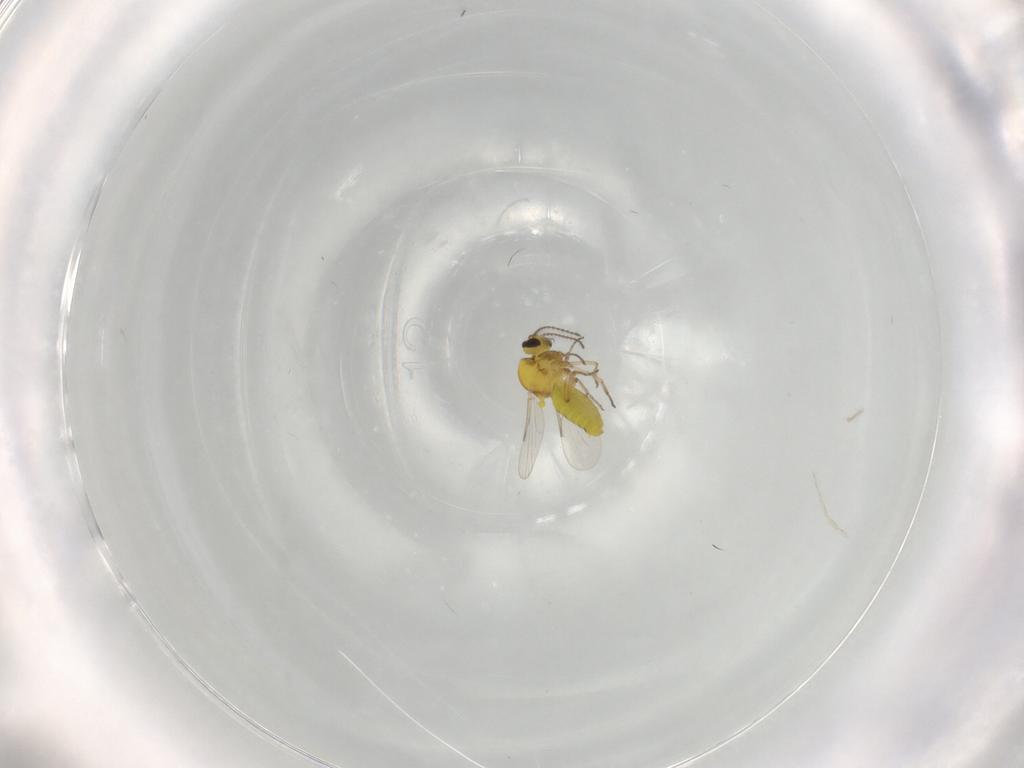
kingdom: Animalia
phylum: Arthropoda
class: Insecta
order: Diptera
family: Ceratopogonidae
